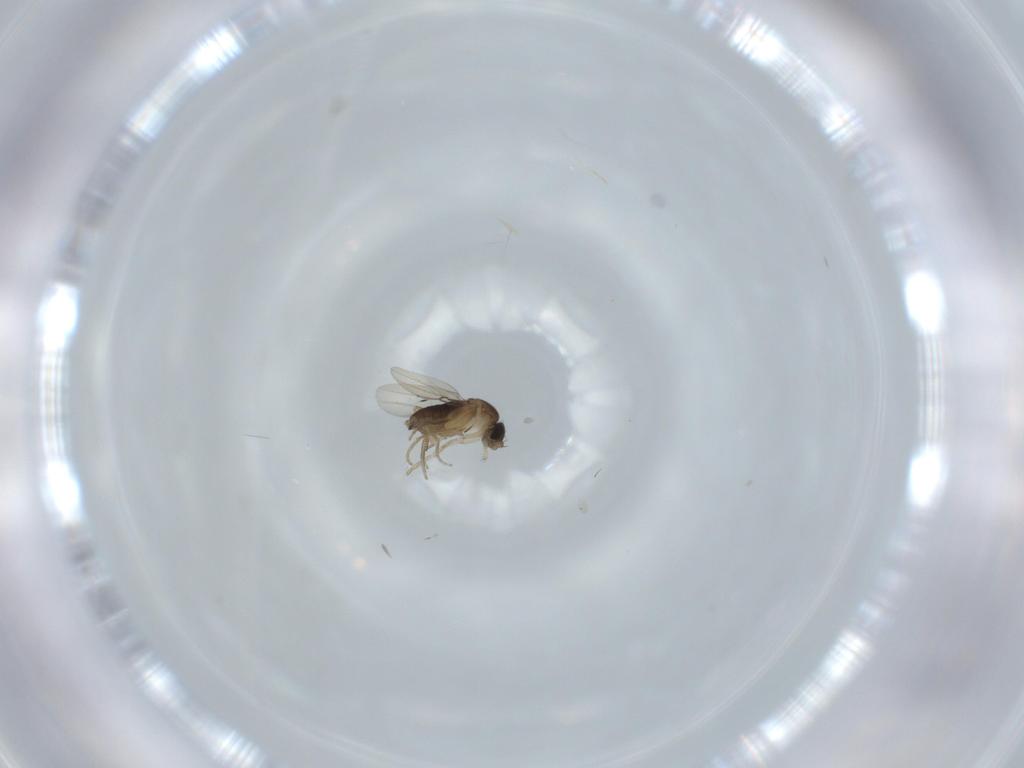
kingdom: Animalia
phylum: Arthropoda
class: Insecta
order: Diptera
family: Phoridae
